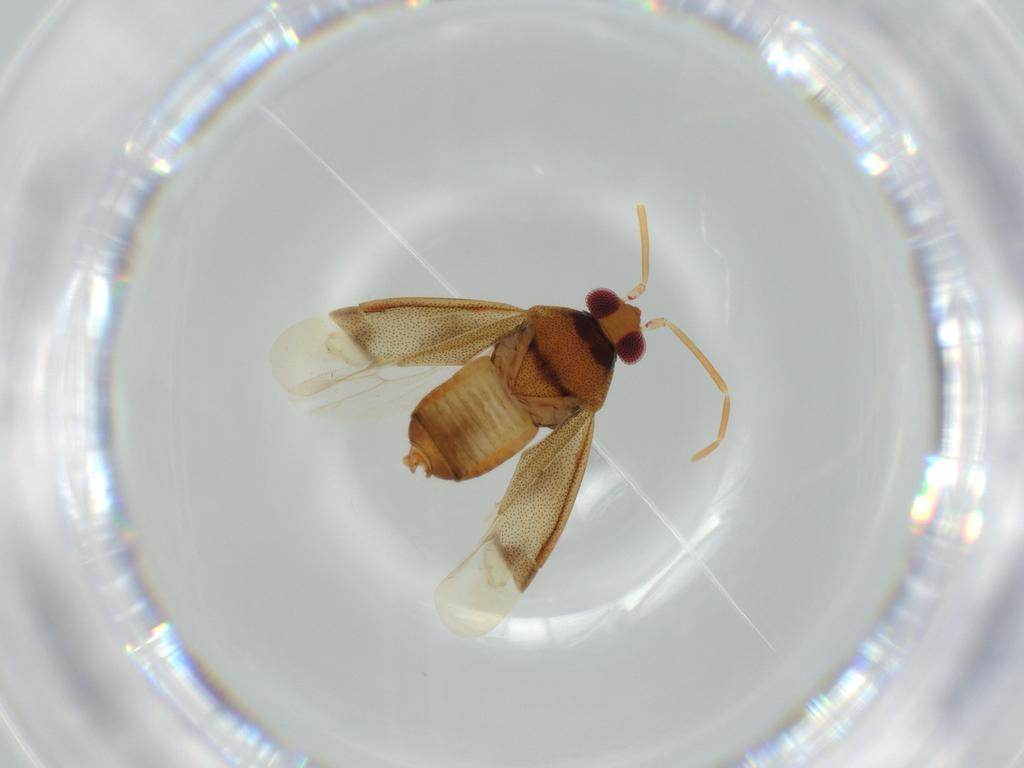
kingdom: Animalia
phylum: Arthropoda
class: Insecta
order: Hemiptera
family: Miridae
